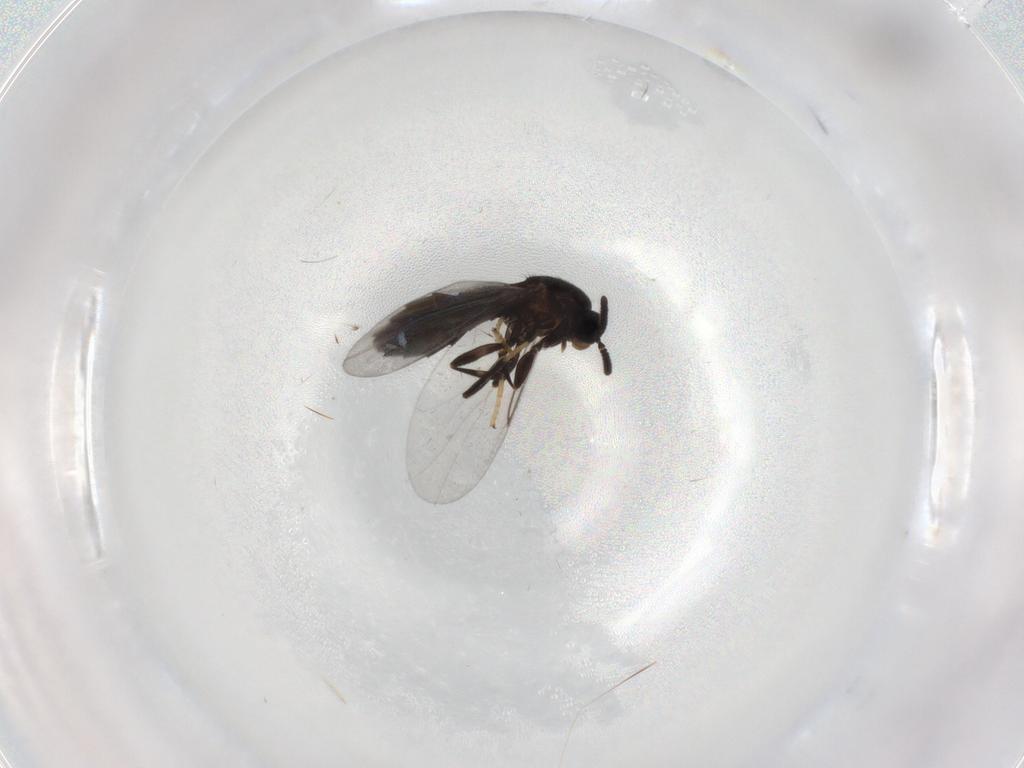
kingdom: Animalia
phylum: Arthropoda
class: Insecta
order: Diptera
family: Scatopsidae
